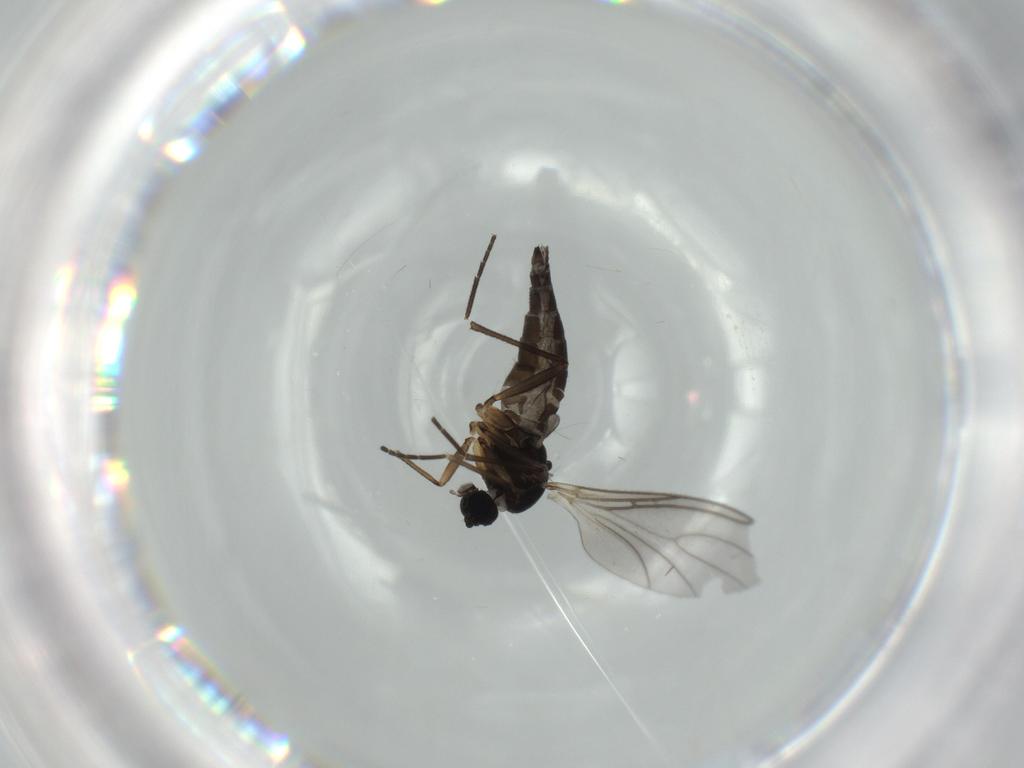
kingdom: Animalia
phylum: Arthropoda
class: Insecta
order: Diptera
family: Sciaridae
